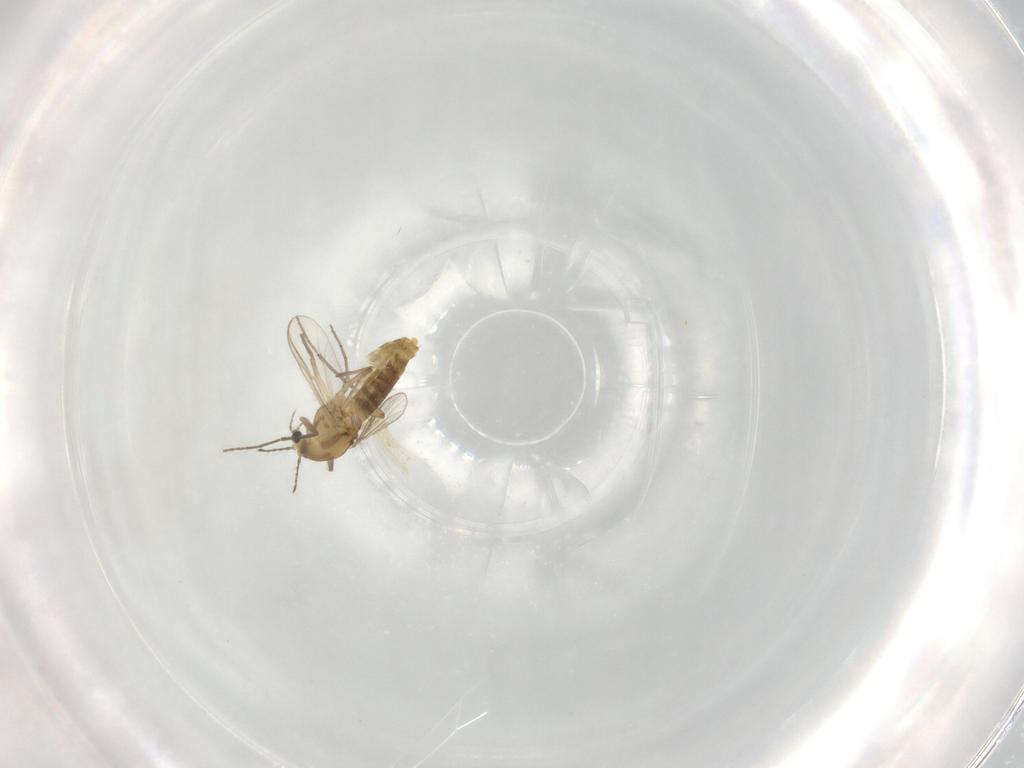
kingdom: Animalia
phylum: Arthropoda
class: Insecta
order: Diptera
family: Chironomidae
